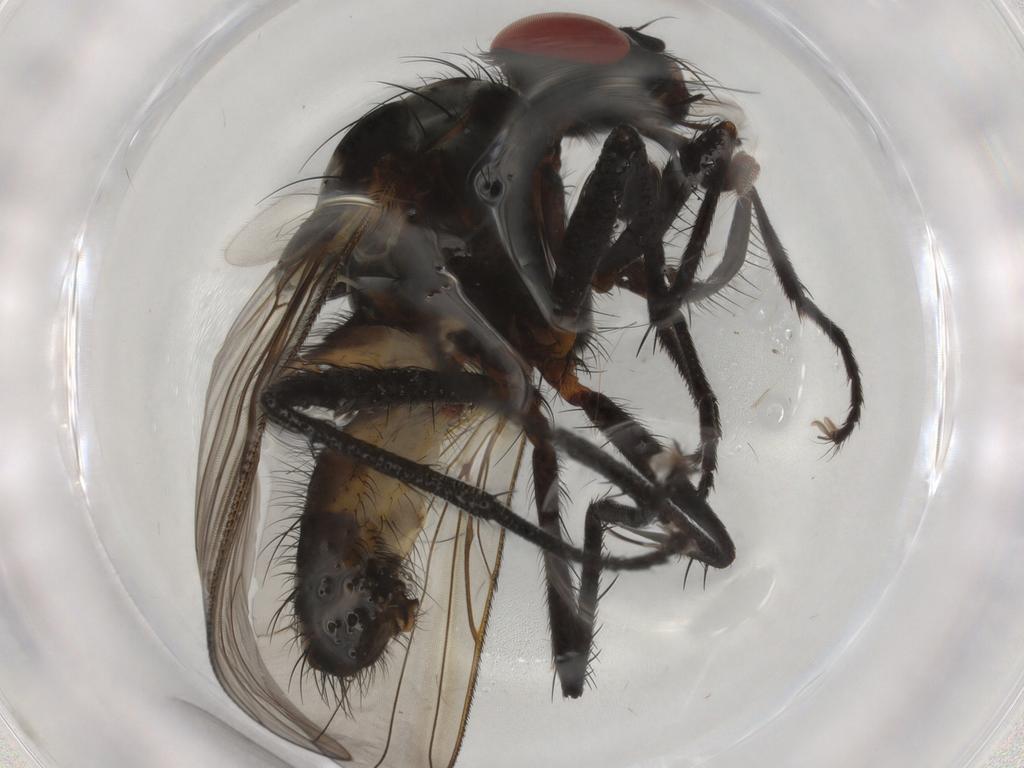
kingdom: Animalia
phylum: Arthropoda
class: Insecta
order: Diptera
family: Anthomyiidae
